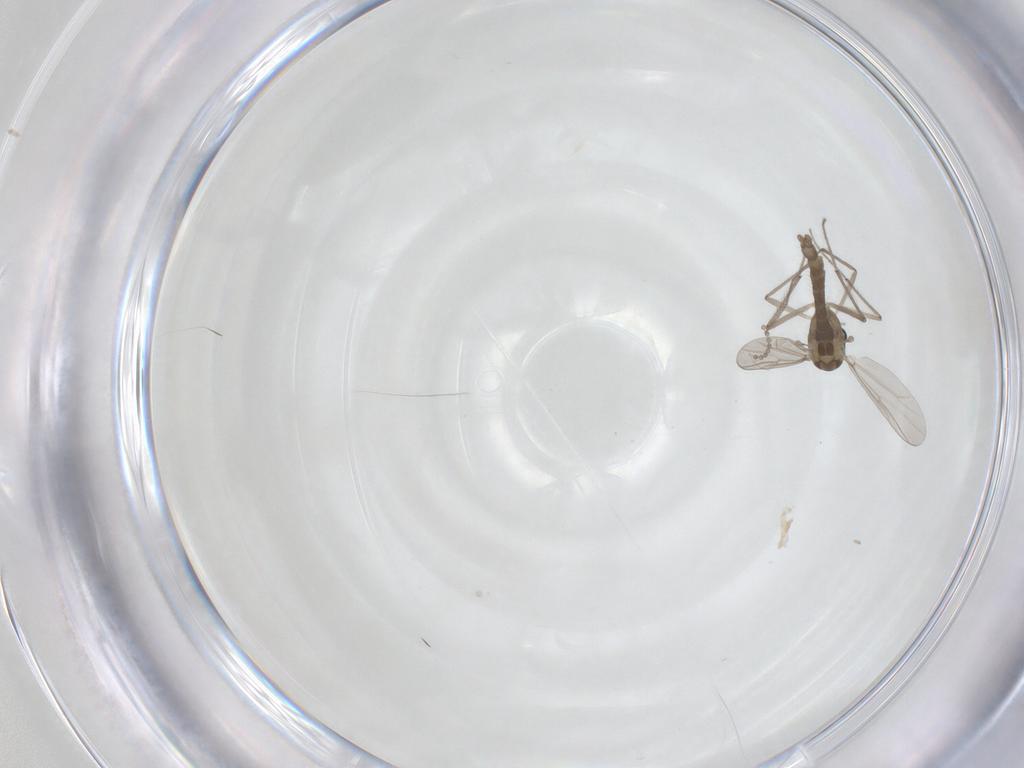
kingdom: Animalia
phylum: Arthropoda
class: Insecta
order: Diptera
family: Chironomidae
